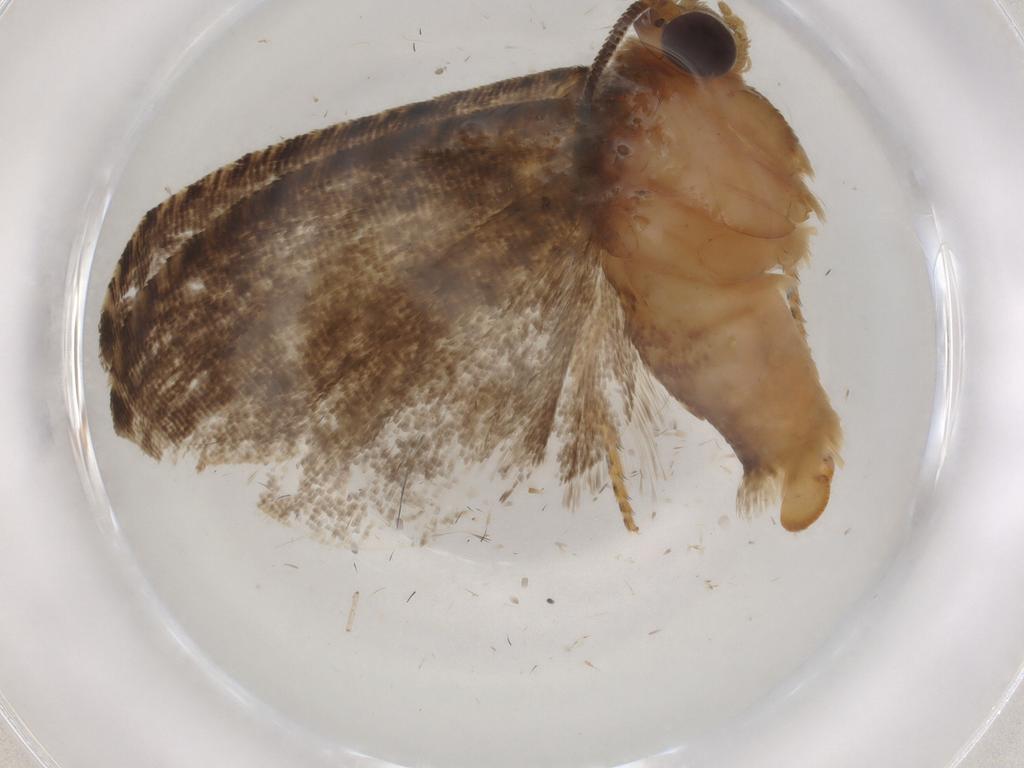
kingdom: Animalia
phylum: Arthropoda
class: Insecta
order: Lepidoptera
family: Tortricidae
